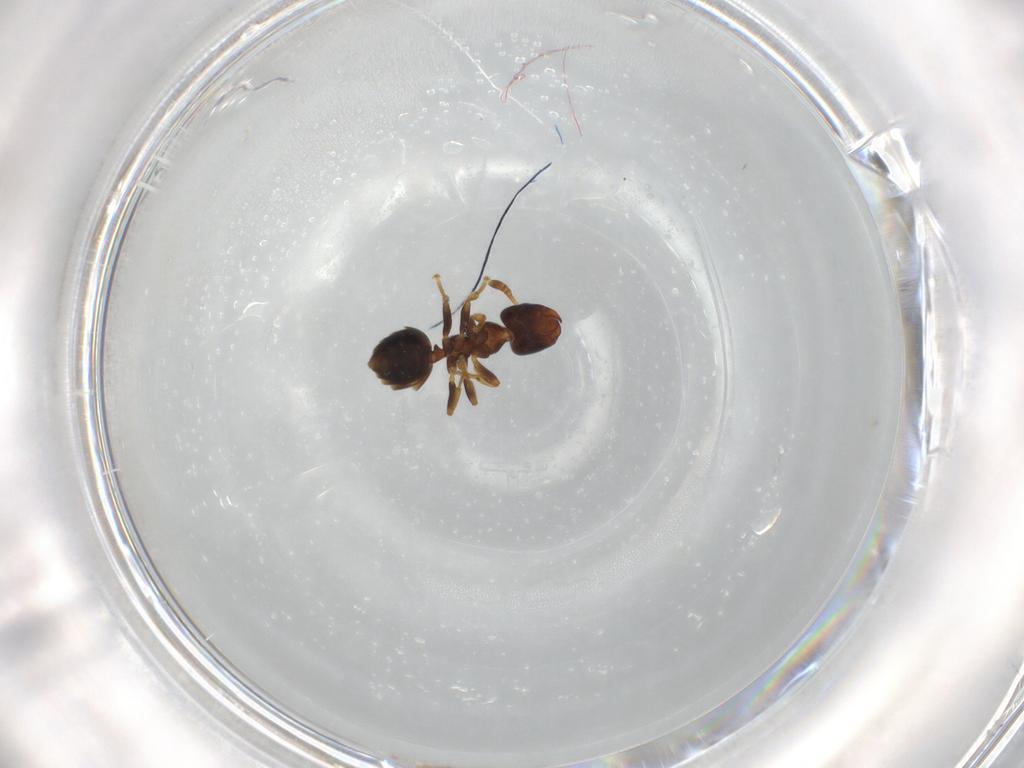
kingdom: Animalia
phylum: Arthropoda
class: Insecta
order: Hymenoptera
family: Formicidae
